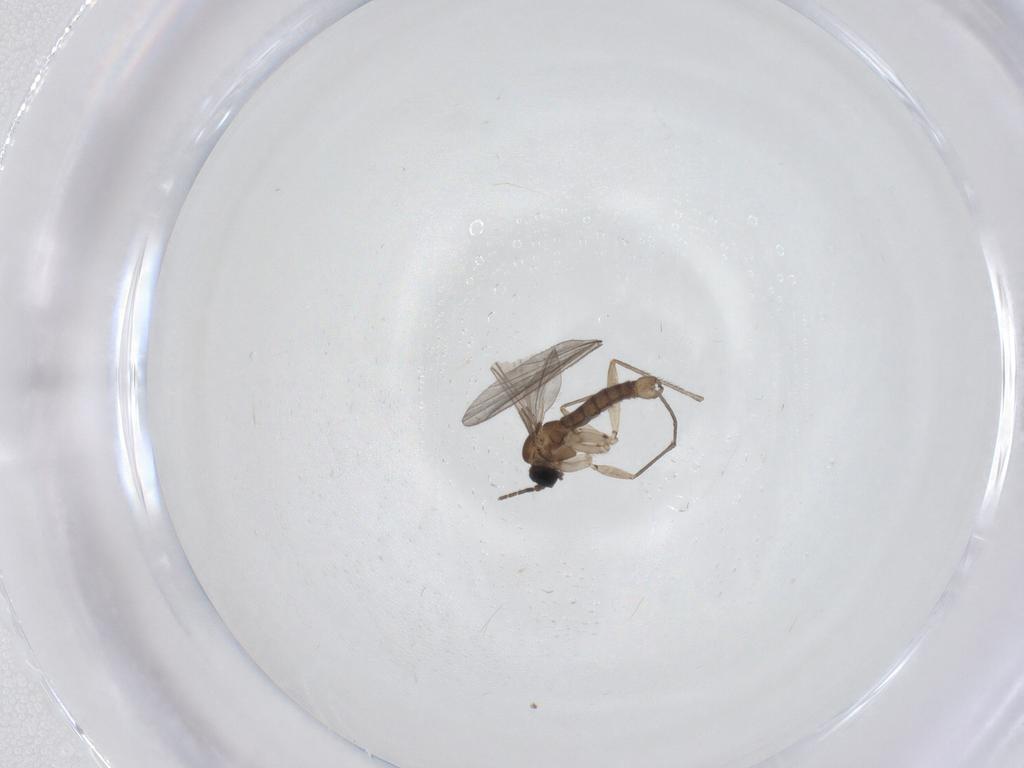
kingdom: Animalia
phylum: Arthropoda
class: Insecta
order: Diptera
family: Cecidomyiidae
